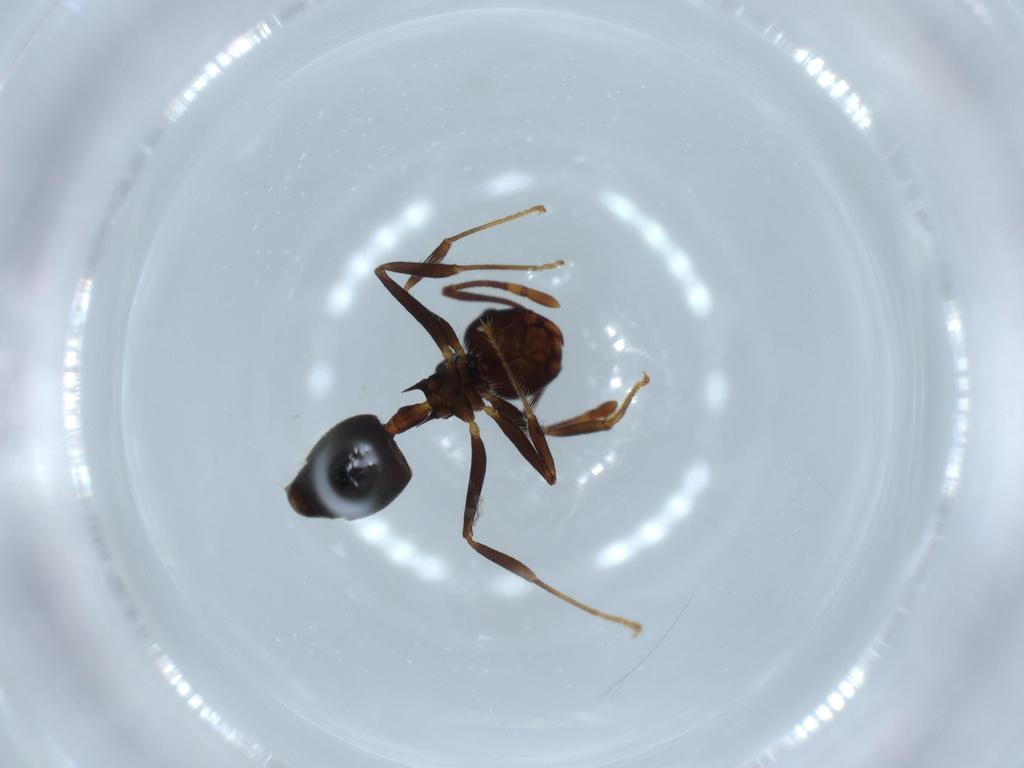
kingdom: Animalia
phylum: Arthropoda
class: Insecta
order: Hymenoptera
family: Formicidae
